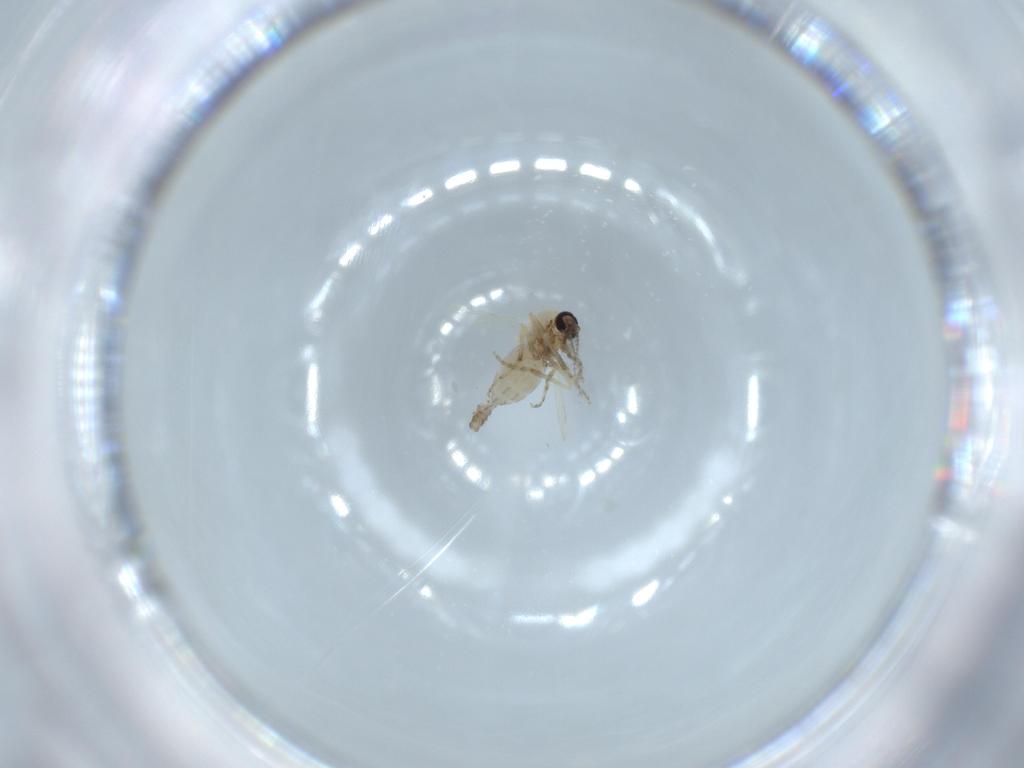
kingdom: Animalia
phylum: Arthropoda
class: Insecta
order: Diptera
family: Ceratopogonidae
